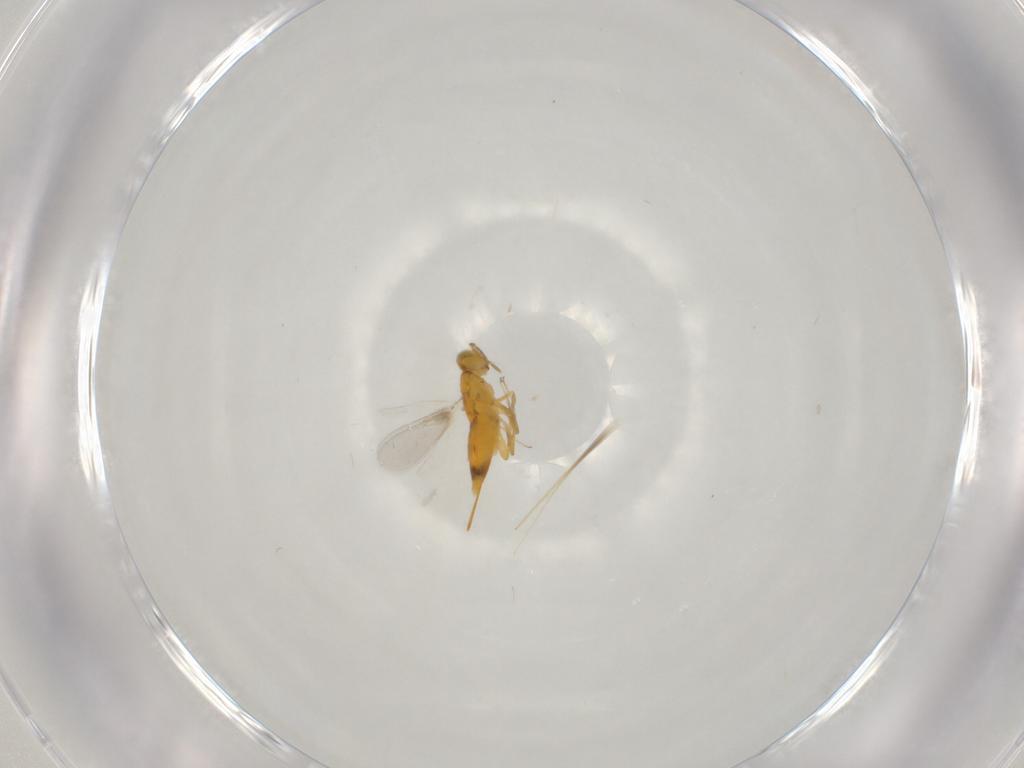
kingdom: Animalia
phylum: Arthropoda
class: Insecta
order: Hymenoptera
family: Aphelinidae
